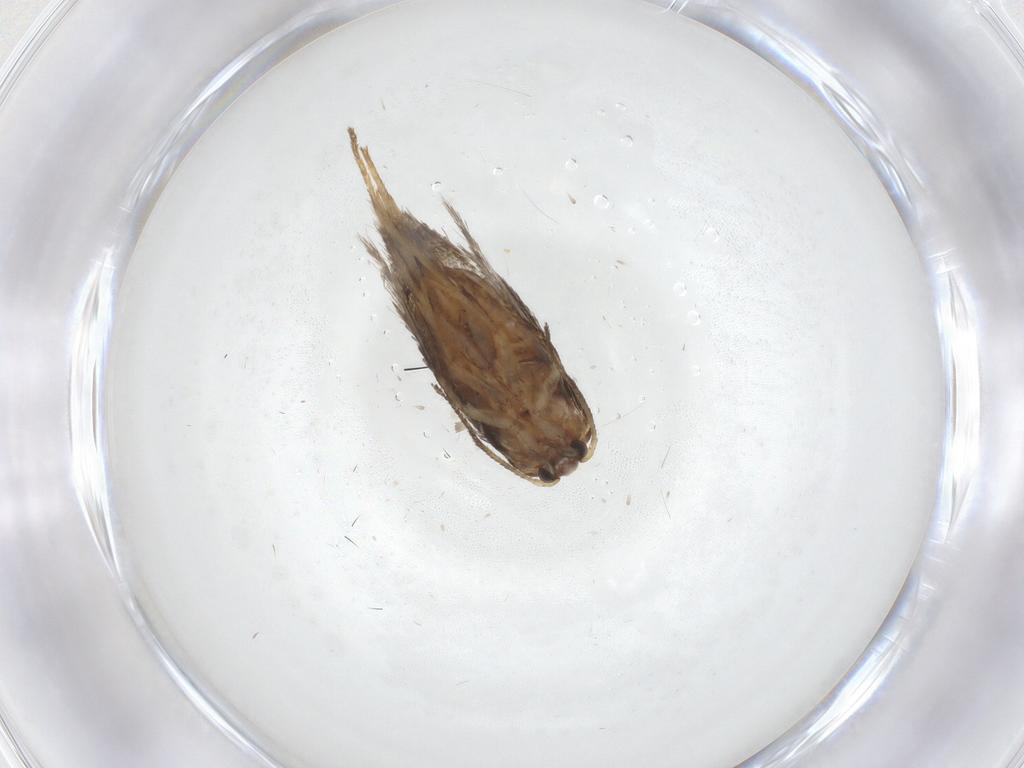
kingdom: Animalia
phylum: Arthropoda
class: Insecta
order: Lepidoptera
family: Nepticulidae
